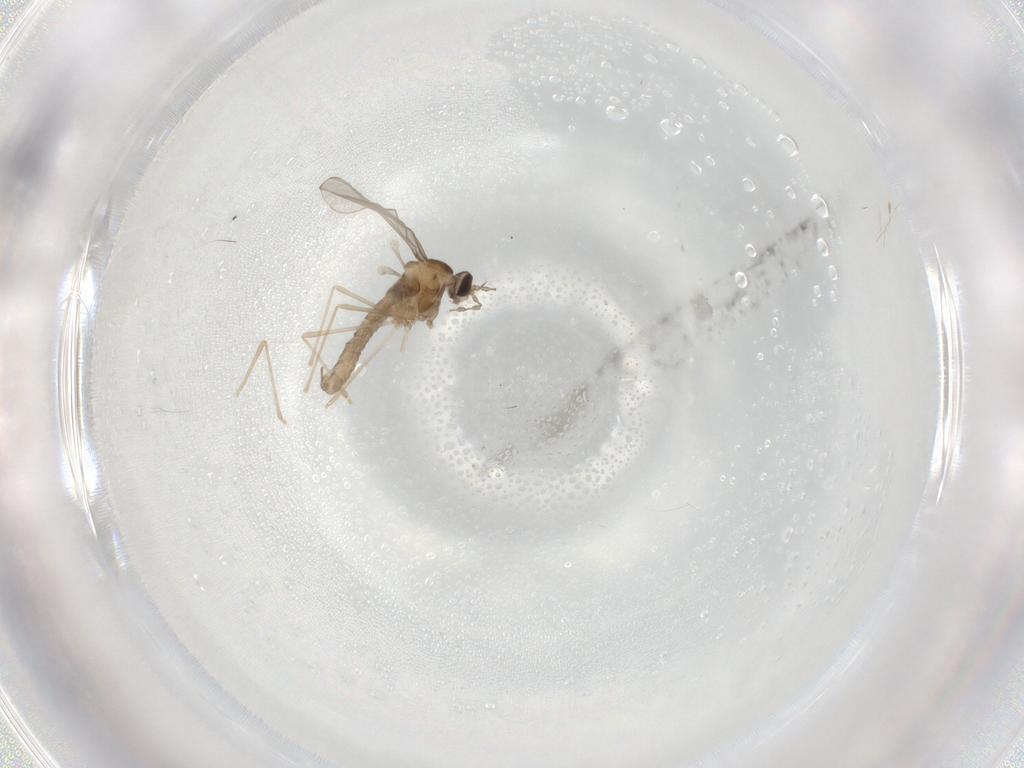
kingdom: Animalia
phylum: Arthropoda
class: Insecta
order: Diptera
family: Cecidomyiidae
